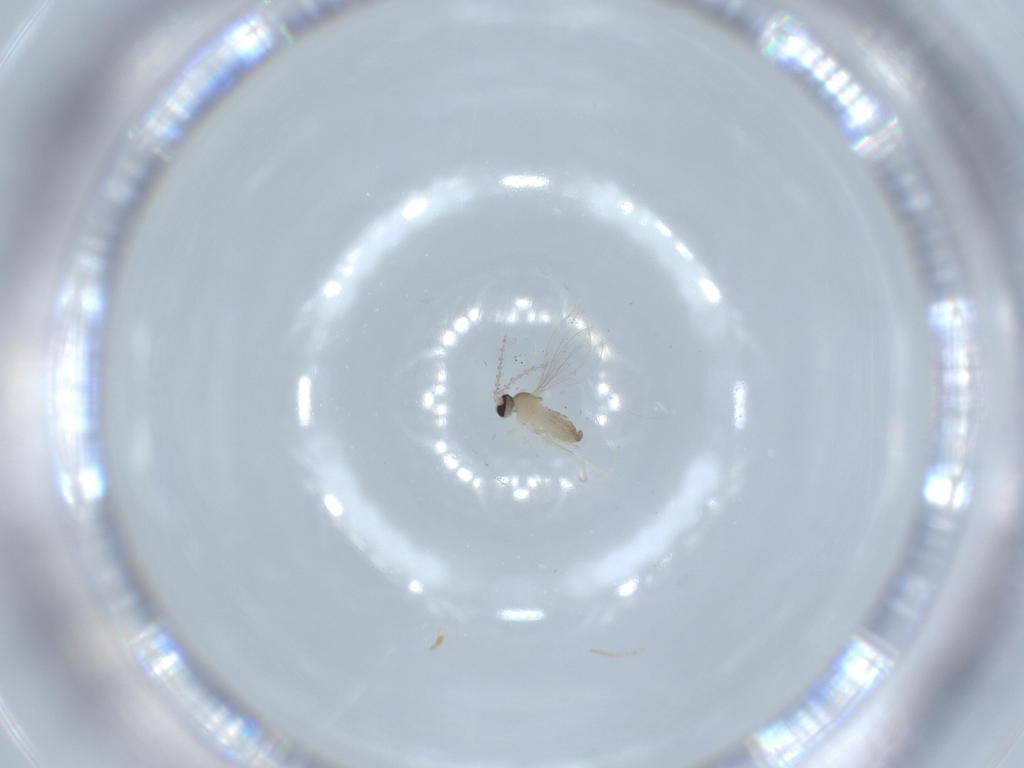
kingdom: Animalia
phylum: Arthropoda
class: Insecta
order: Diptera
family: Cecidomyiidae
